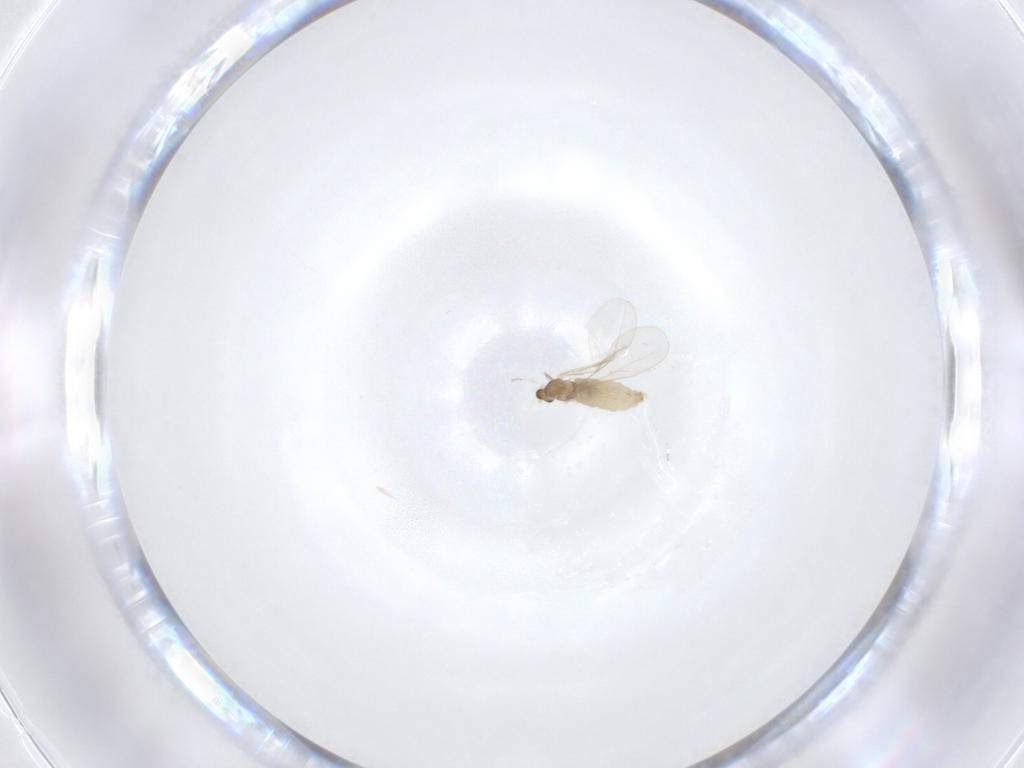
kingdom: Animalia
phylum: Arthropoda
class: Insecta
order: Diptera
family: Cecidomyiidae
